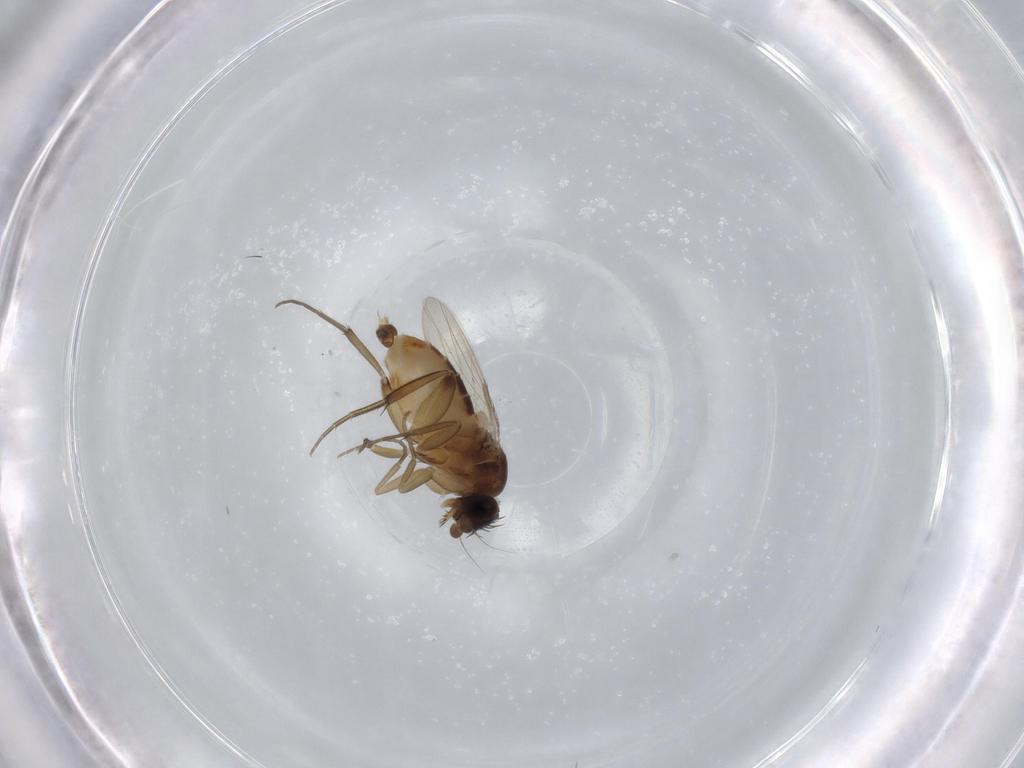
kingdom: Animalia
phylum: Arthropoda
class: Insecta
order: Diptera
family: Phoridae
